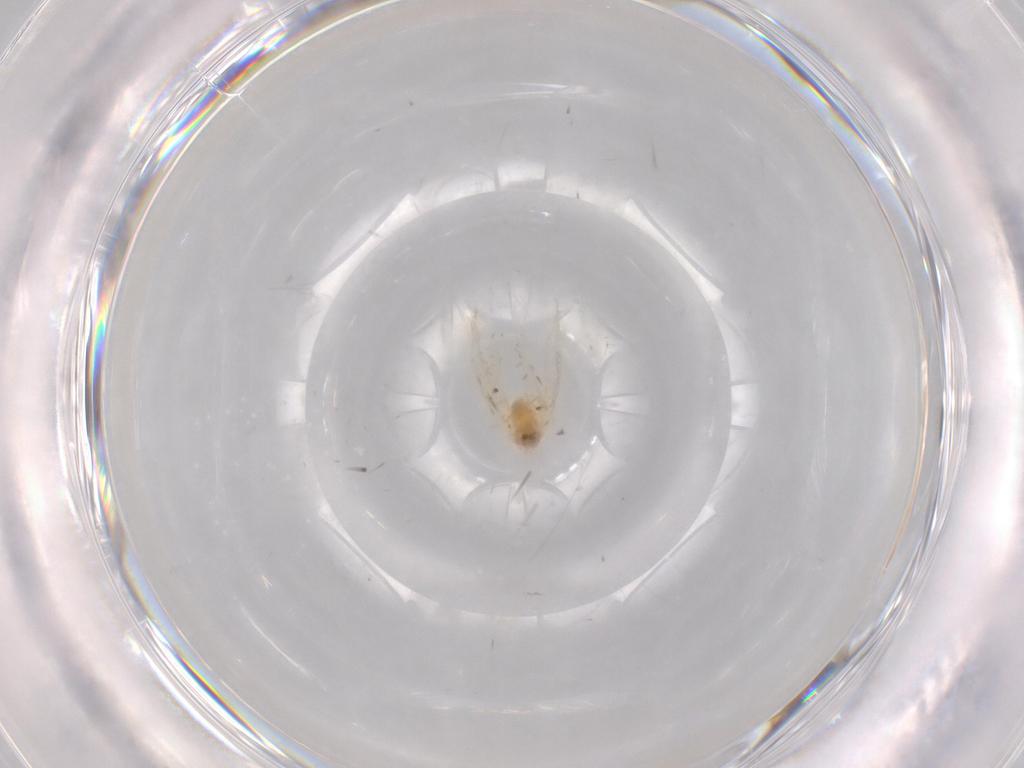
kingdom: Animalia
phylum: Arthropoda
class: Insecta
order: Hemiptera
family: Aleyrodidae
